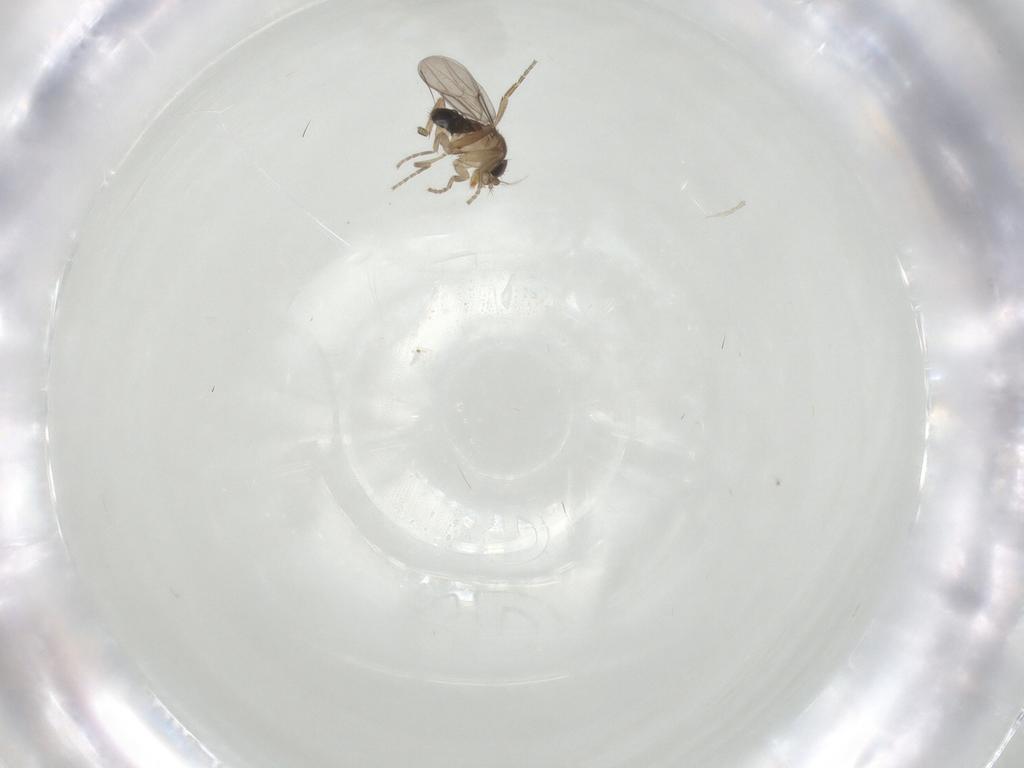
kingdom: Animalia
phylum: Arthropoda
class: Insecta
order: Diptera
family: Chironomidae
